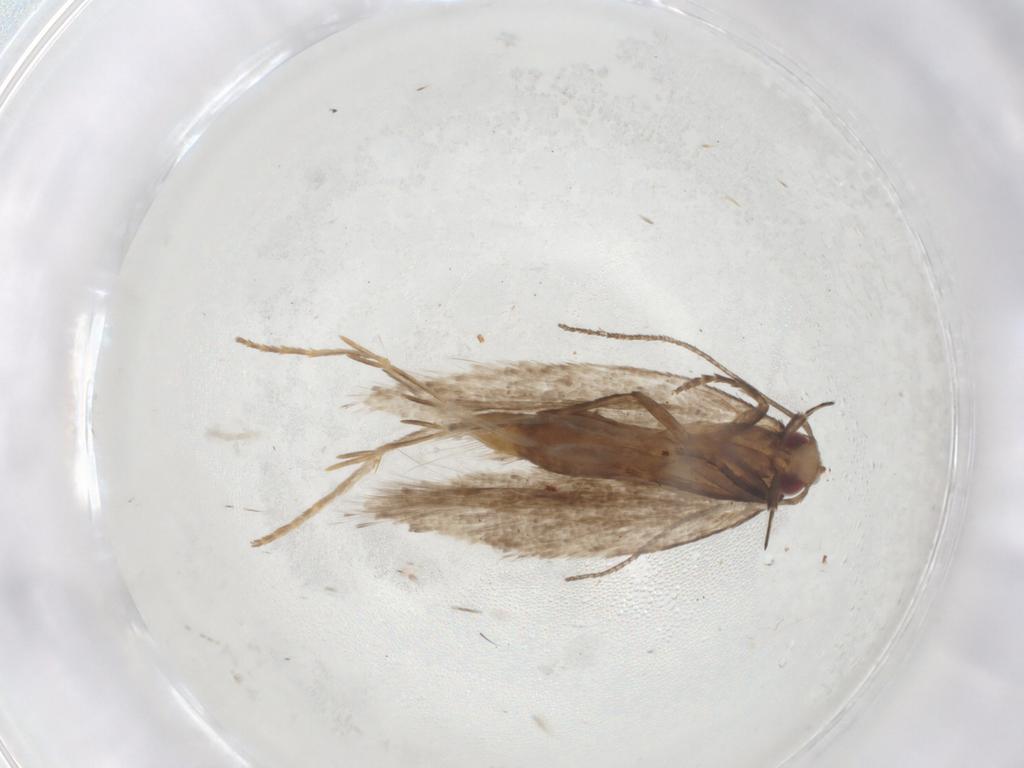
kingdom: Animalia
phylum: Arthropoda
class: Insecta
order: Lepidoptera
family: Gelechiidae
